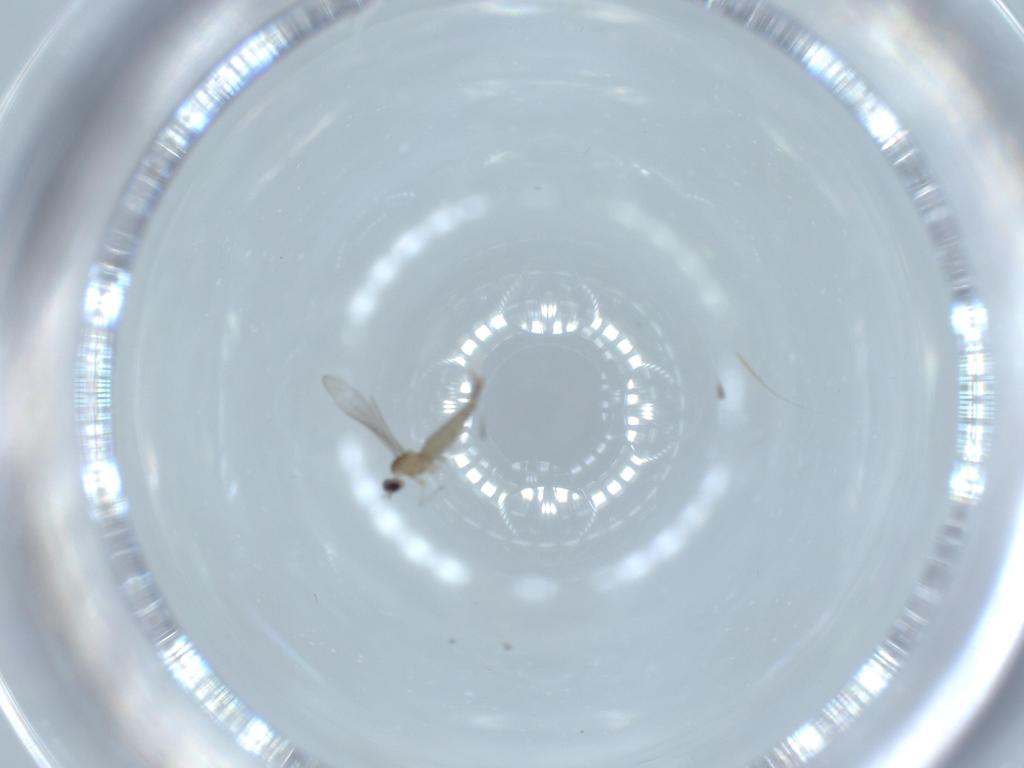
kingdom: Animalia
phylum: Arthropoda
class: Insecta
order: Diptera
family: Cecidomyiidae
